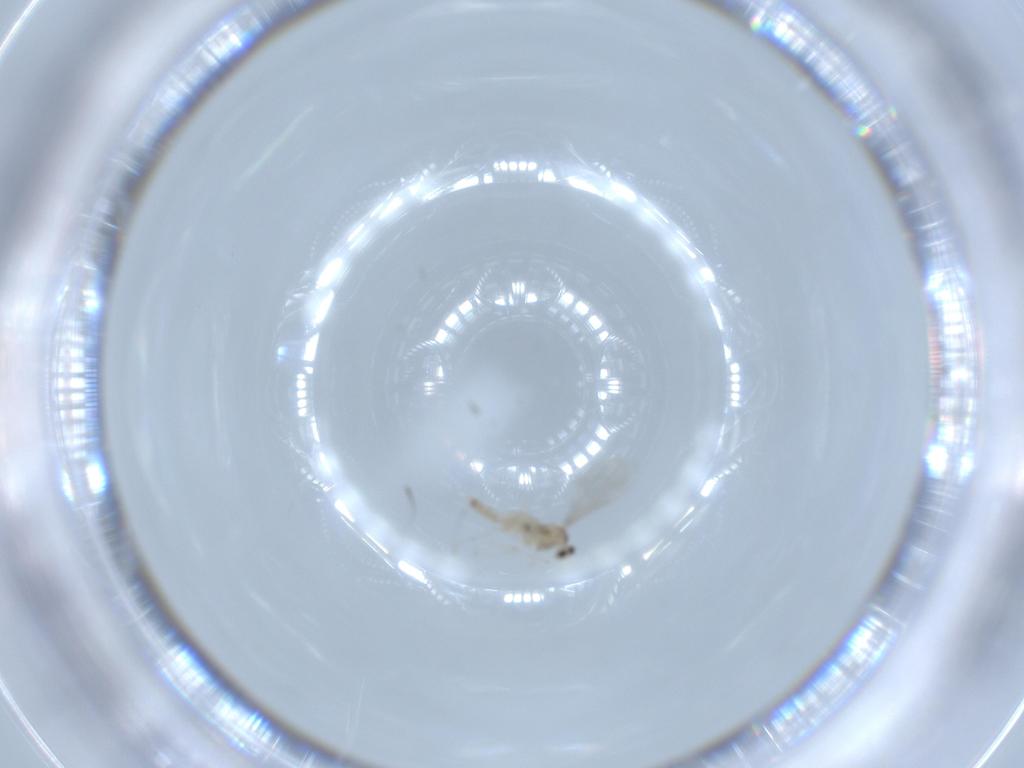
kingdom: Animalia
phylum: Arthropoda
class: Insecta
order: Diptera
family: Cecidomyiidae
